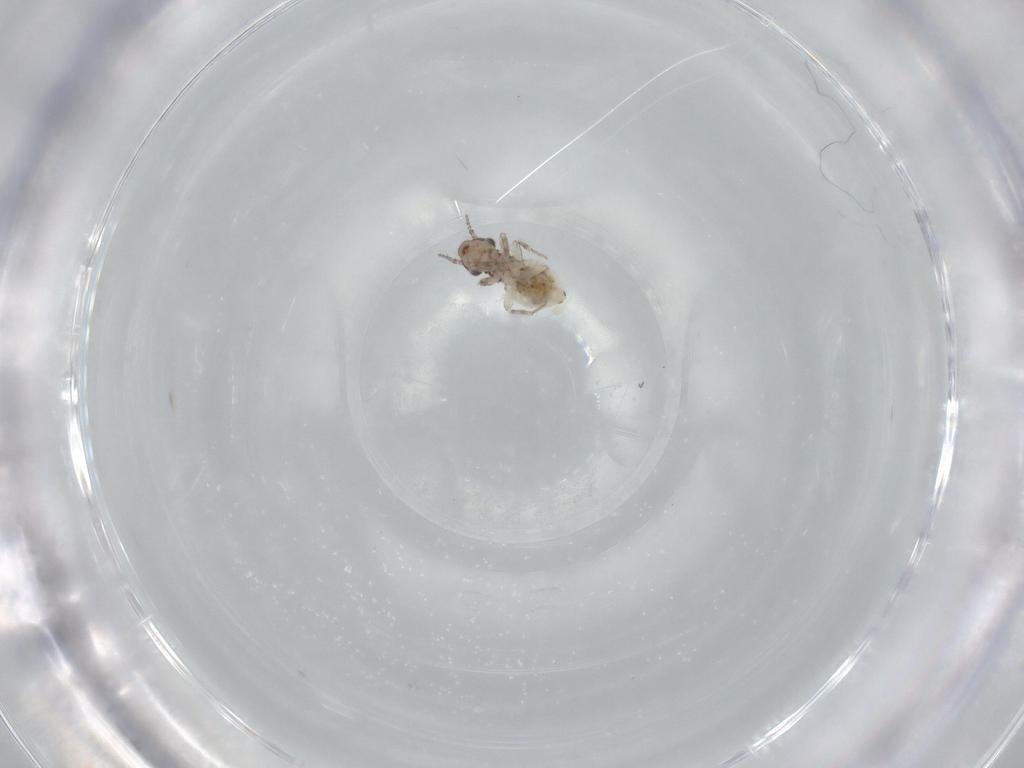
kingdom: Animalia
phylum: Arthropoda
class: Insecta
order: Psocodea
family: Lepidopsocidae
